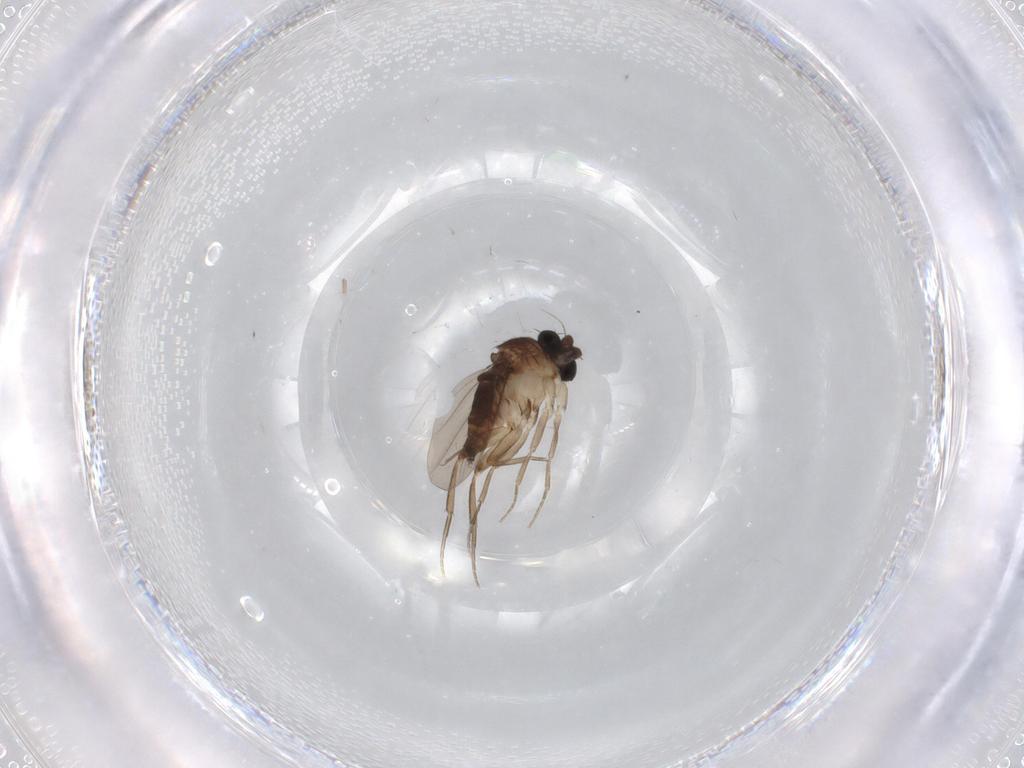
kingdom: Animalia
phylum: Arthropoda
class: Insecta
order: Diptera
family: Phoridae
